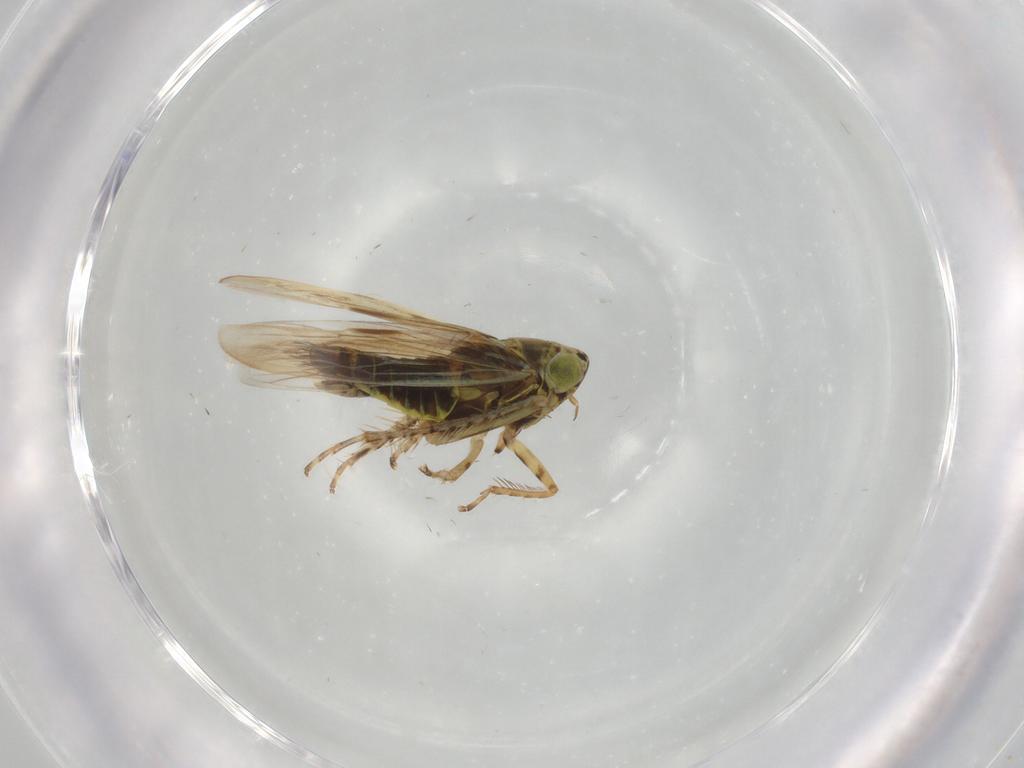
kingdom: Animalia
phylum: Arthropoda
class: Insecta
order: Hemiptera
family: Cicadellidae
